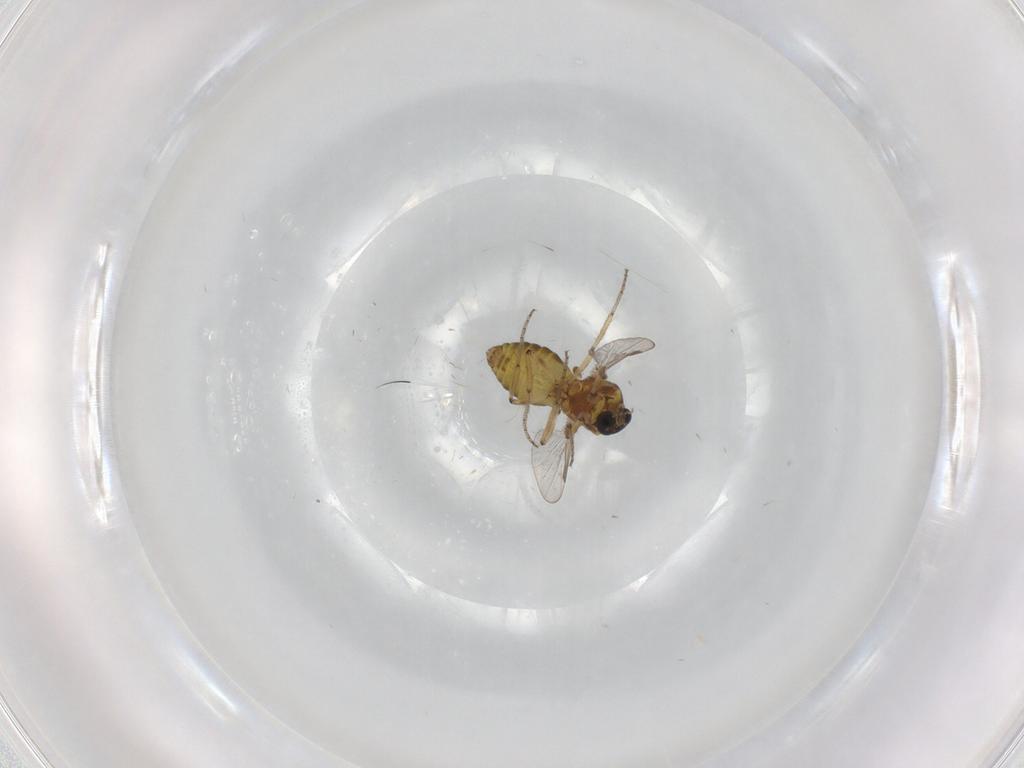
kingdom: Animalia
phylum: Arthropoda
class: Insecta
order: Diptera
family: Ceratopogonidae
